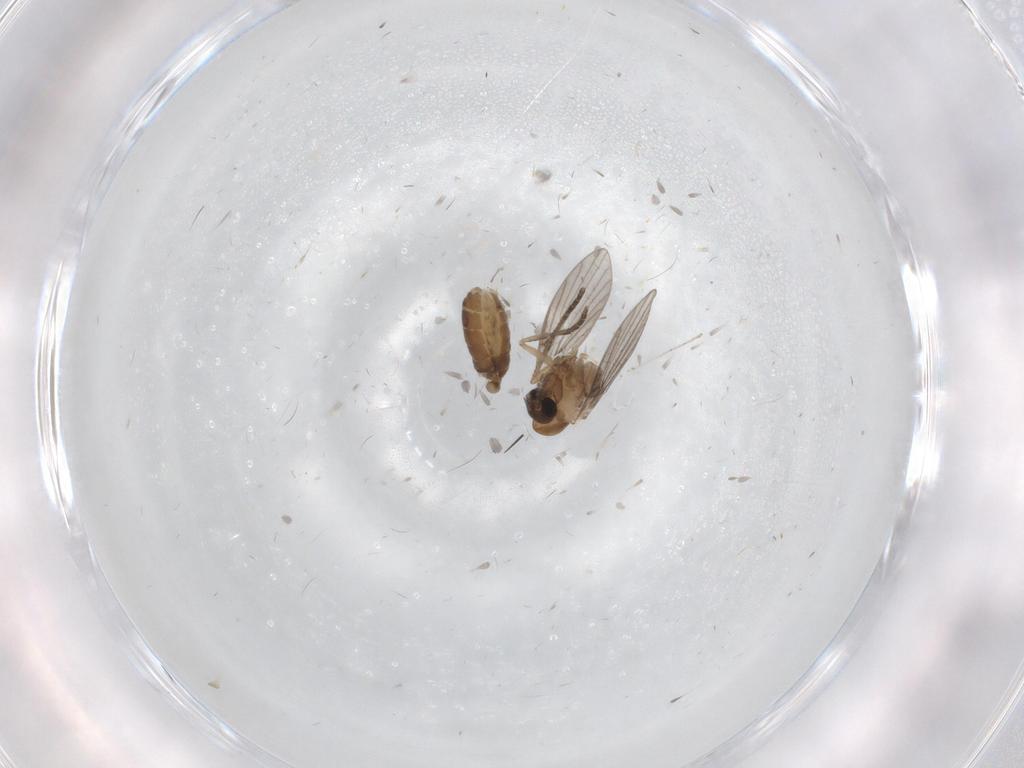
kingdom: Animalia
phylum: Arthropoda
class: Insecta
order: Diptera
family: Psychodidae
